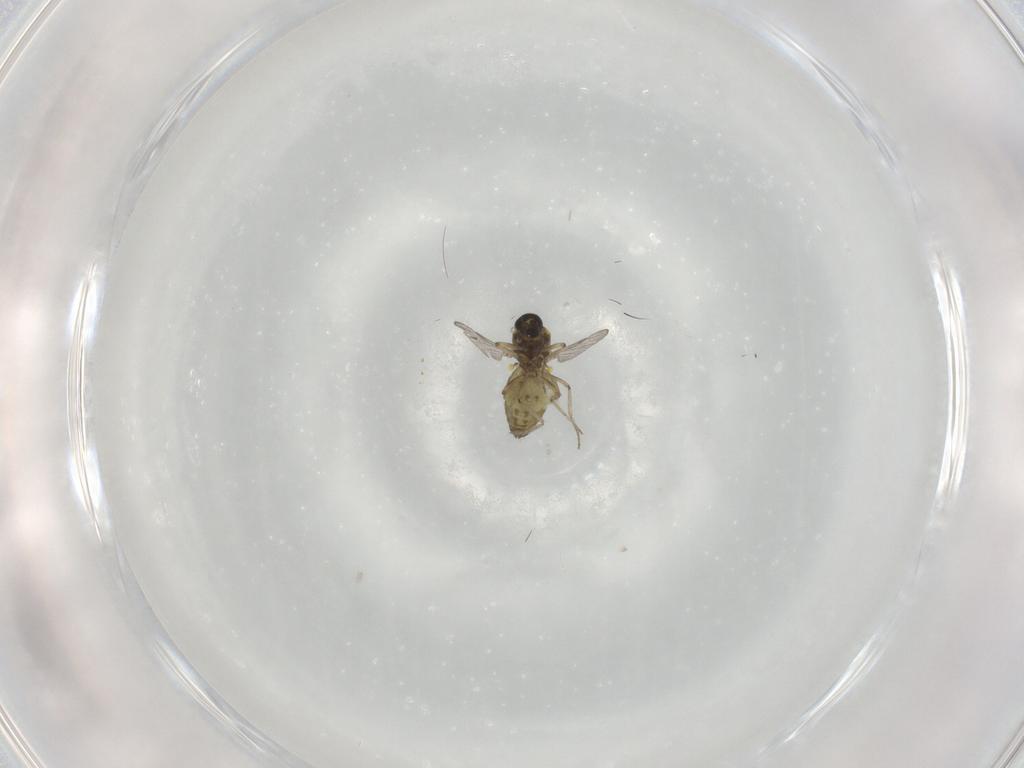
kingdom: Animalia
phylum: Arthropoda
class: Insecta
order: Diptera
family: Ceratopogonidae
